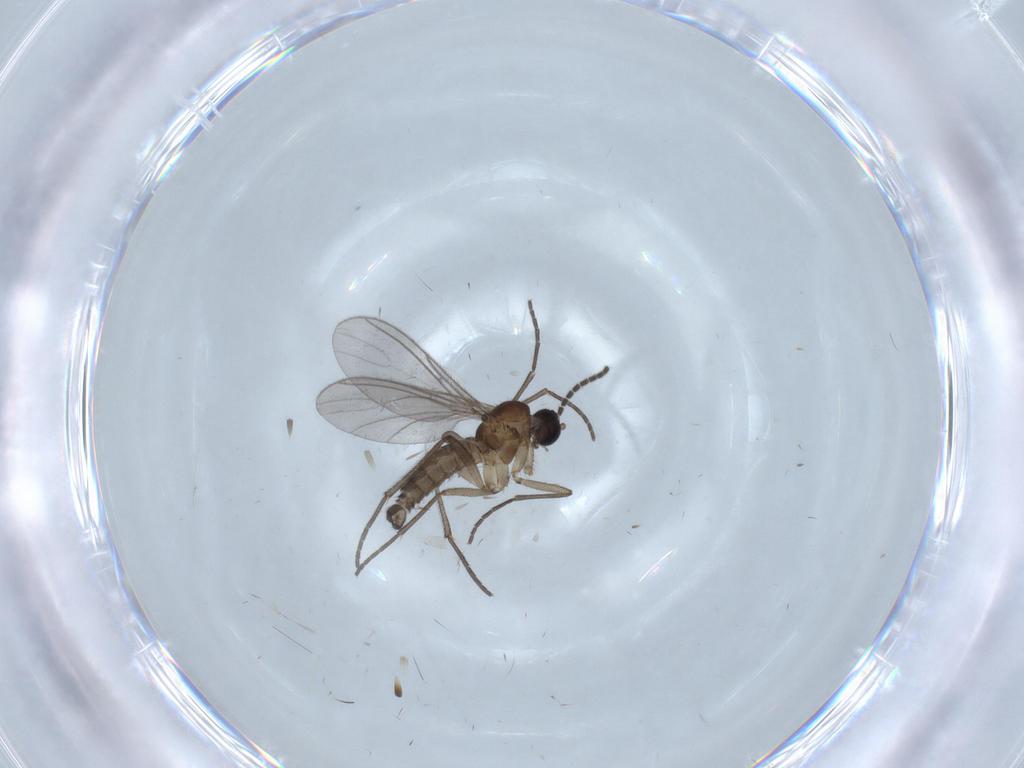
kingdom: Animalia
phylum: Arthropoda
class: Insecta
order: Diptera
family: Sciaridae
